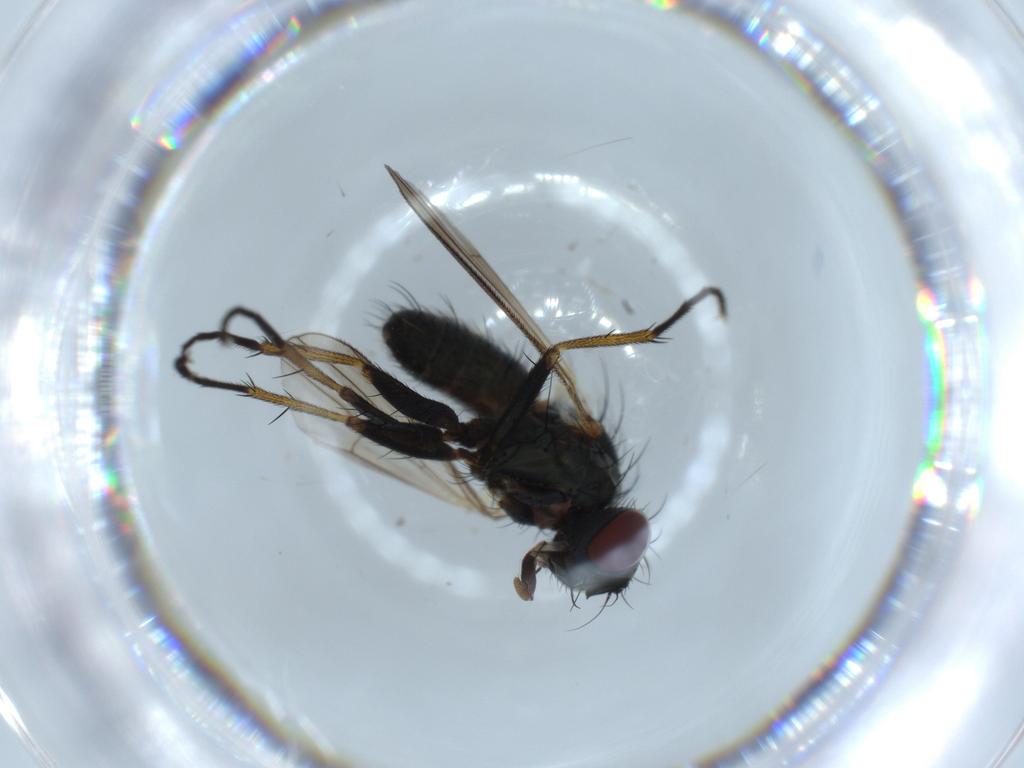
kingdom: Animalia
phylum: Arthropoda
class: Insecta
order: Diptera
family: Muscidae
